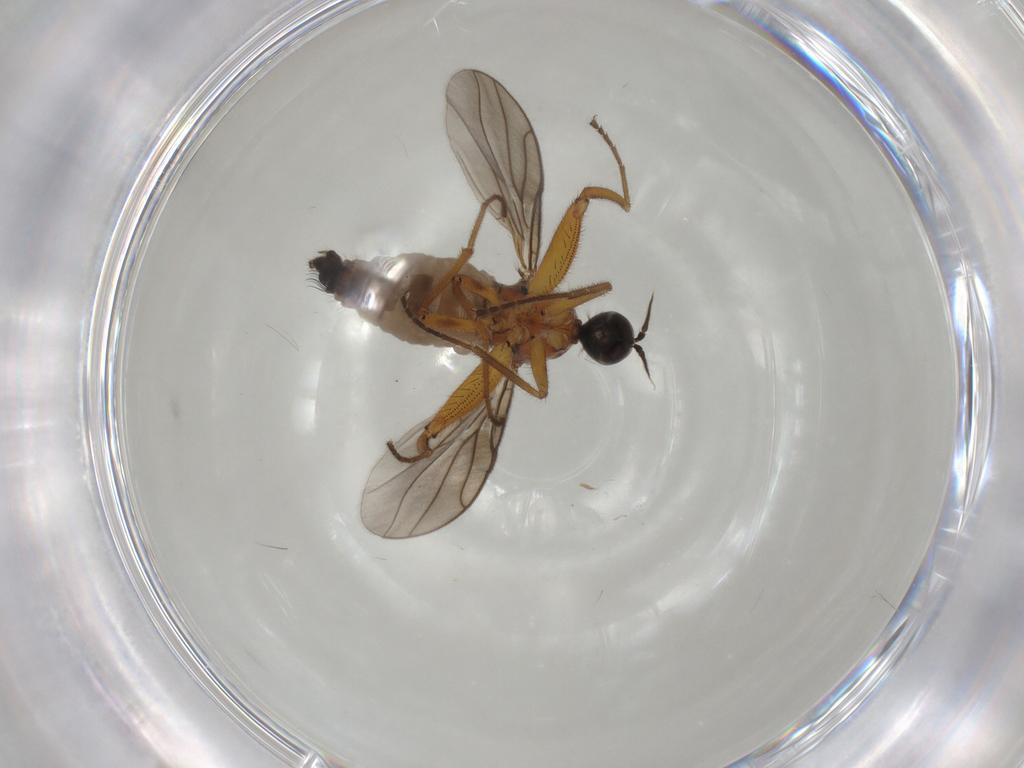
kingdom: Animalia
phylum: Arthropoda
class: Insecta
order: Diptera
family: Hybotidae
